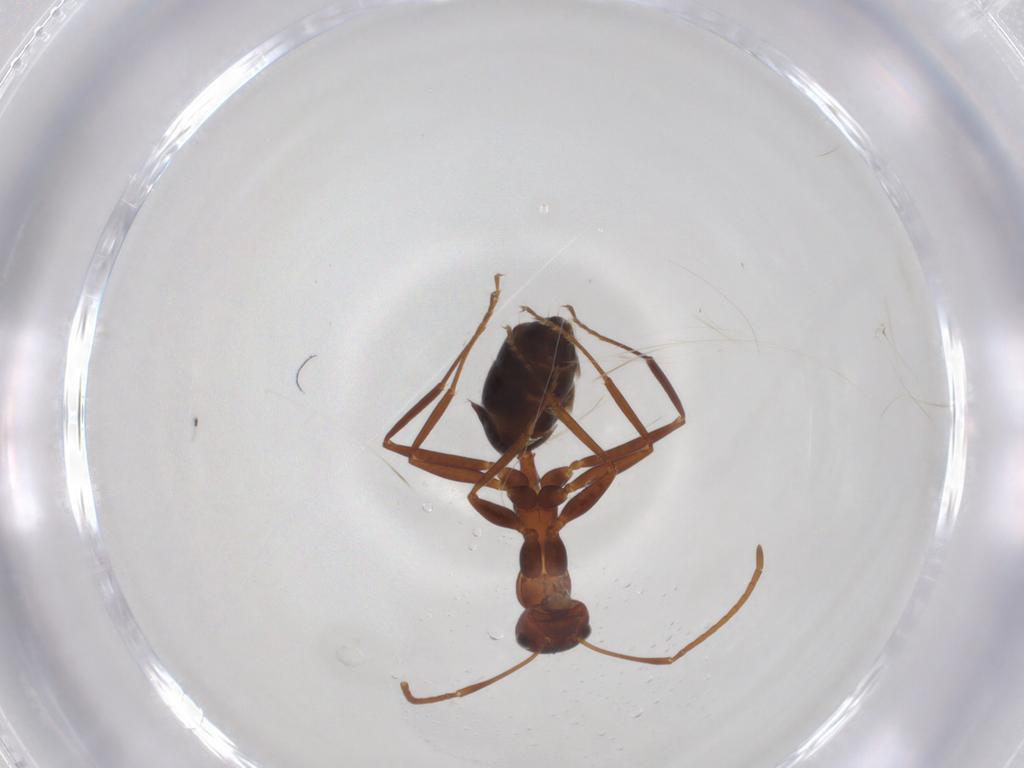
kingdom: Animalia
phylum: Arthropoda
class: Insecta
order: Hymenoptera
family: Formicidae
